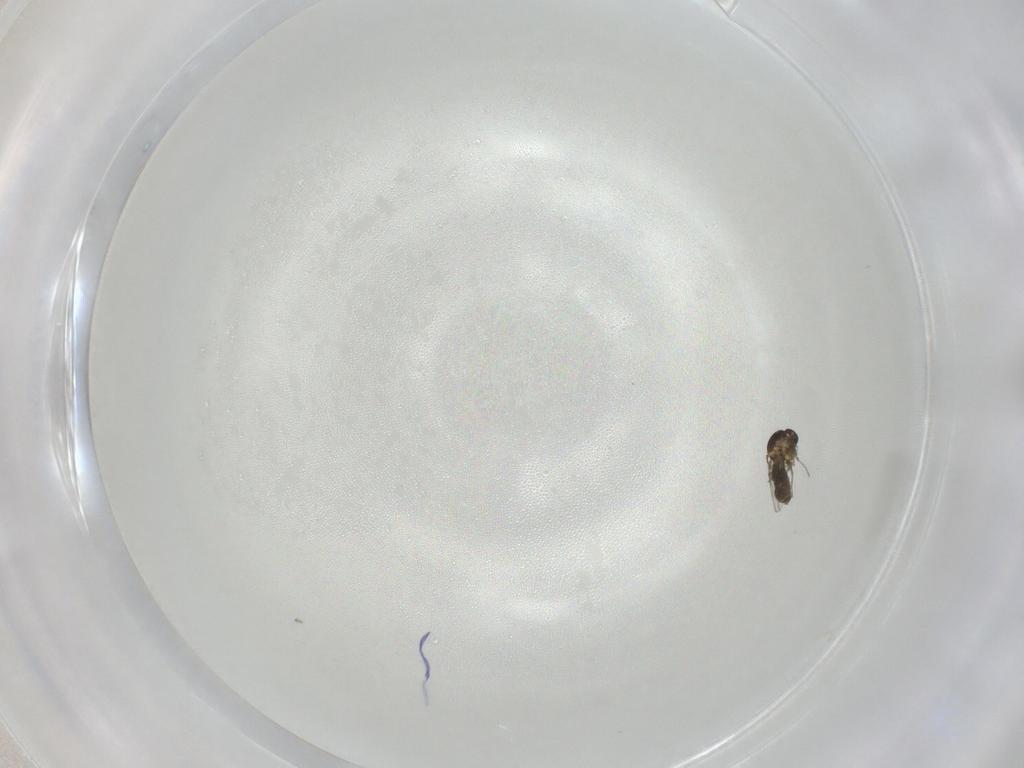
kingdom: Animalia
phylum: Arthropoda
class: Insecta
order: Diptera
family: Ceratopogonidae
